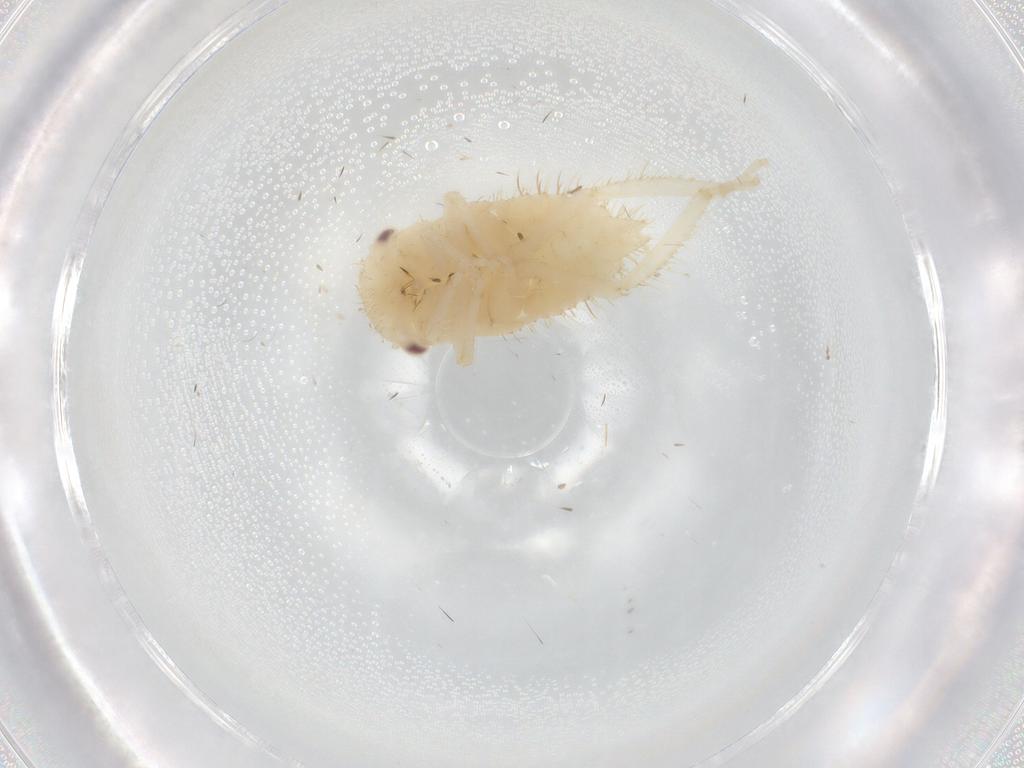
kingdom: Animalia
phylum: Arthropoda
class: Insecta
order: Hemiptera
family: Cicadellidae
